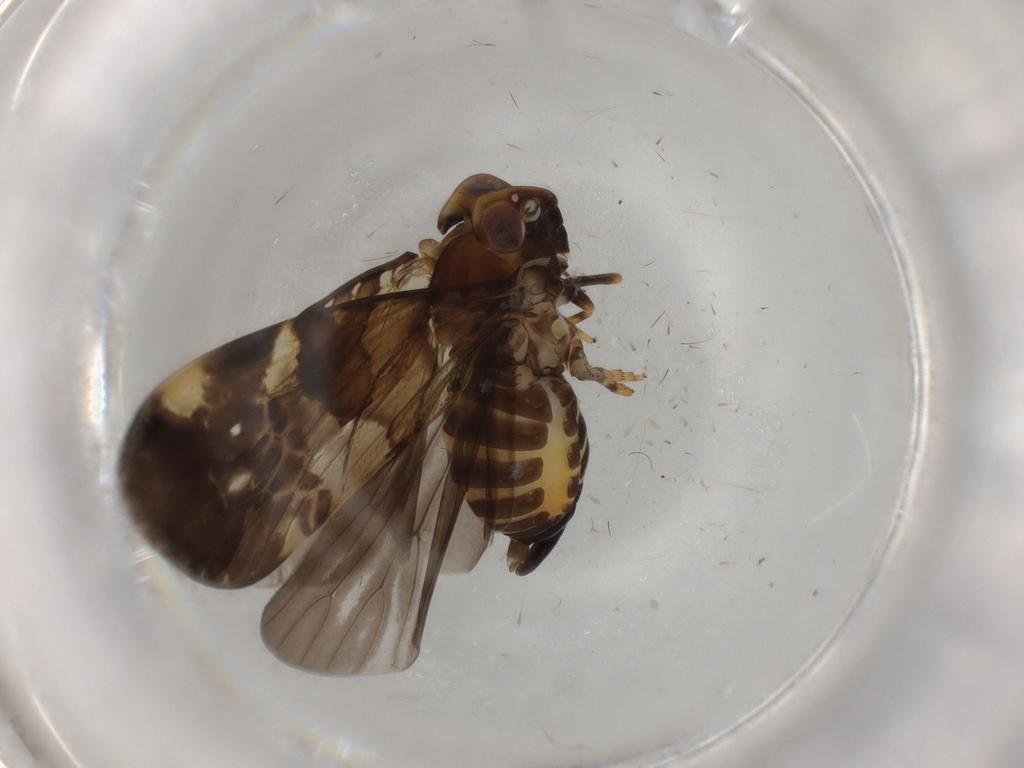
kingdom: Animalia
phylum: Arthropoda
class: Insecta
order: Hemiptera
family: Cixiidae
